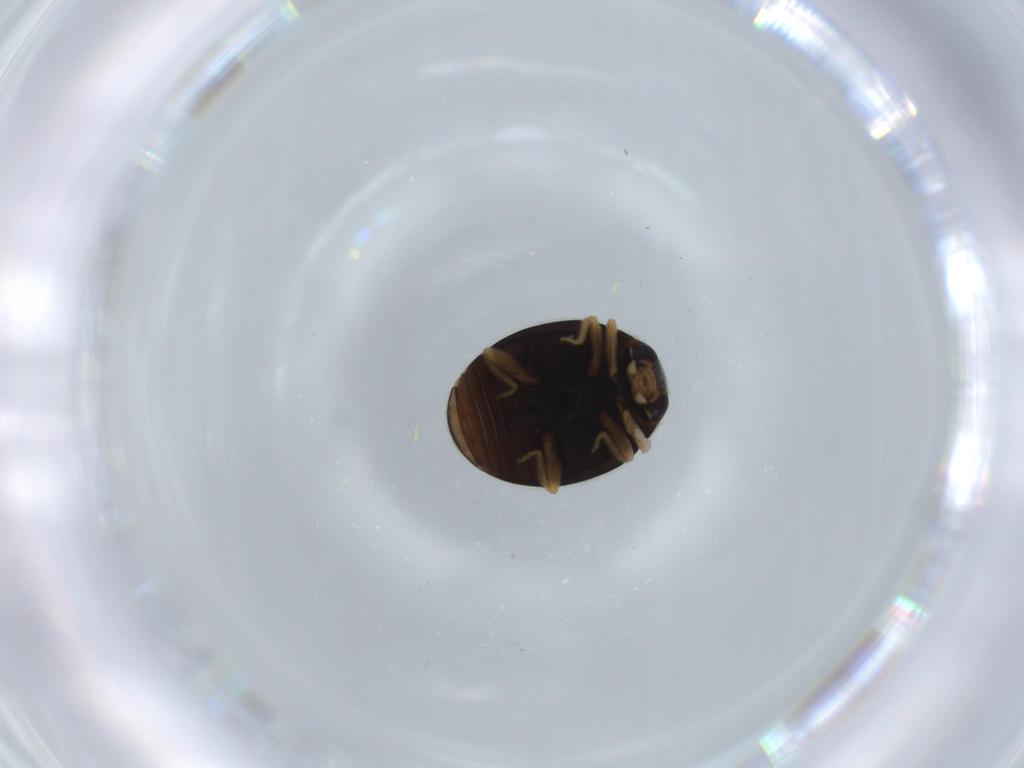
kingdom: Animalia
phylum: Arthropoda
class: Insecta
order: Coleoptera
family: Coccinellidae
